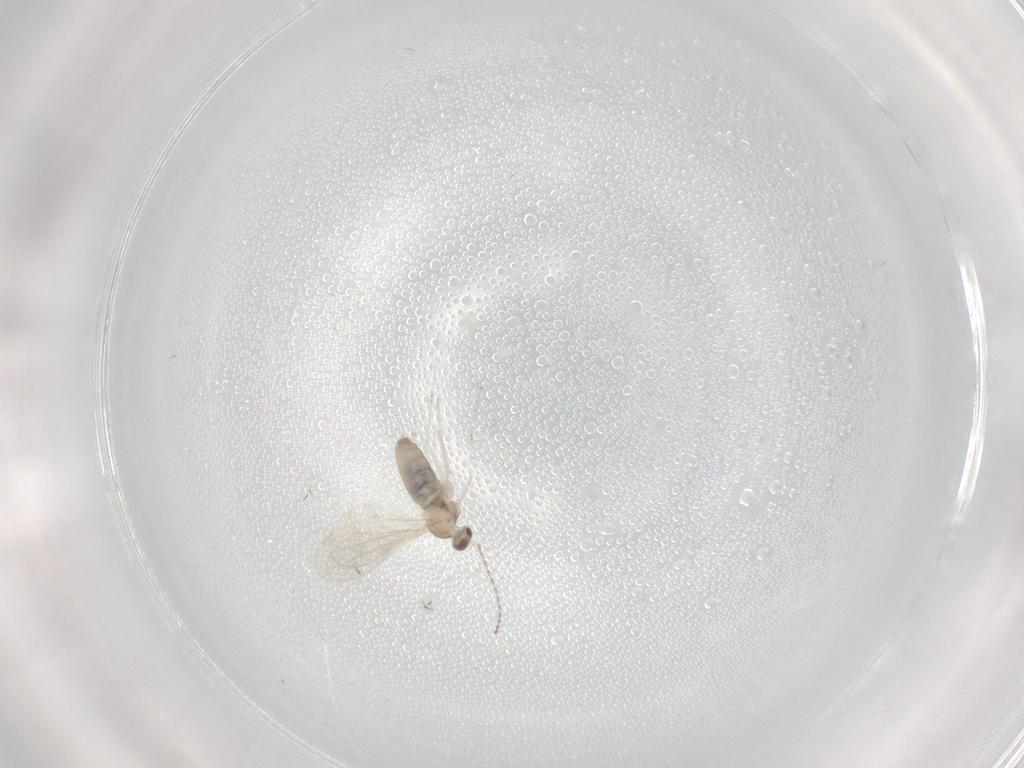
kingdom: Animalia
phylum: Arthropoda
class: Insecta
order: Diptera
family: Sciaridae
